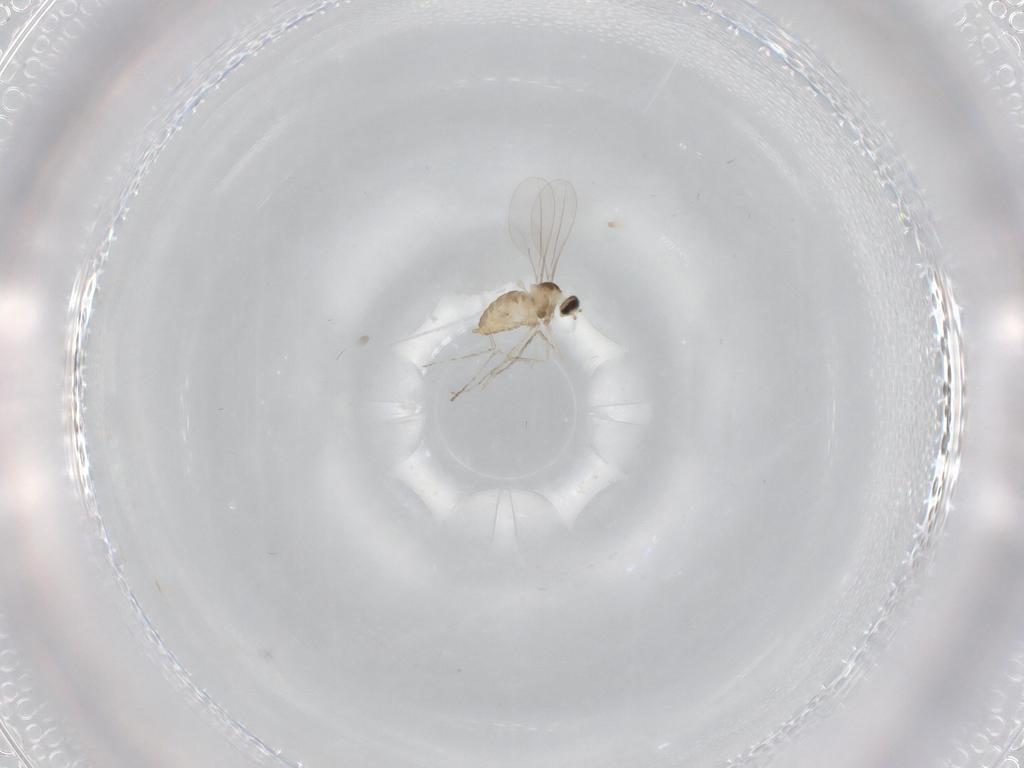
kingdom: Animalia
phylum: Arthropoda
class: Insecta
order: Diptera
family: Cecidomyiidae
